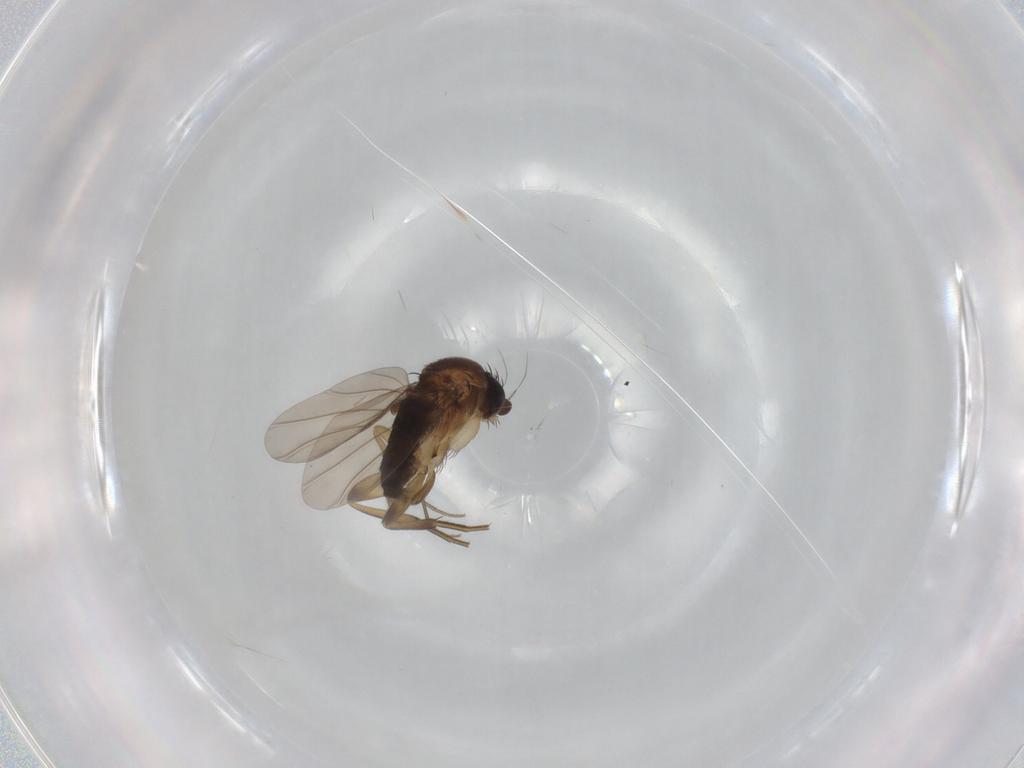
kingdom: Animalia
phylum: Arthropoda
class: Insecta
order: Diptera
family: Phoridae
